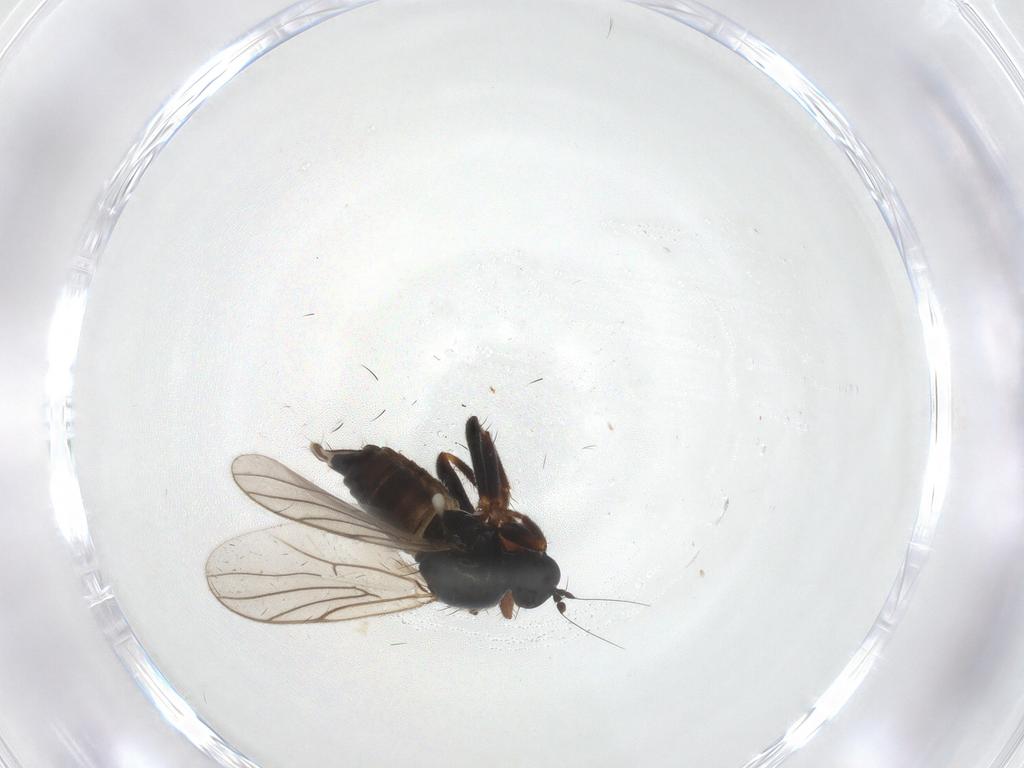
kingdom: Animalia
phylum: Arthropoda
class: Insecta
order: Diptera
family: Hybotidae
